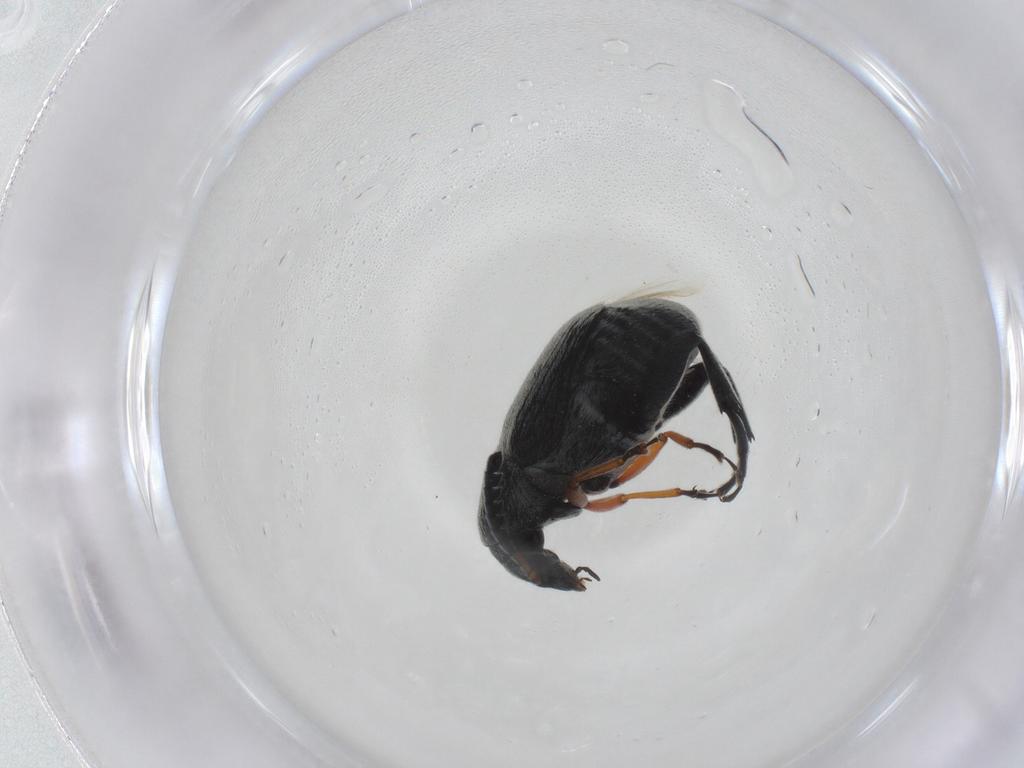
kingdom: Animalia
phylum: Arthropoda
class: Insecta
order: Coleoptera
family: Chrysomelidae
